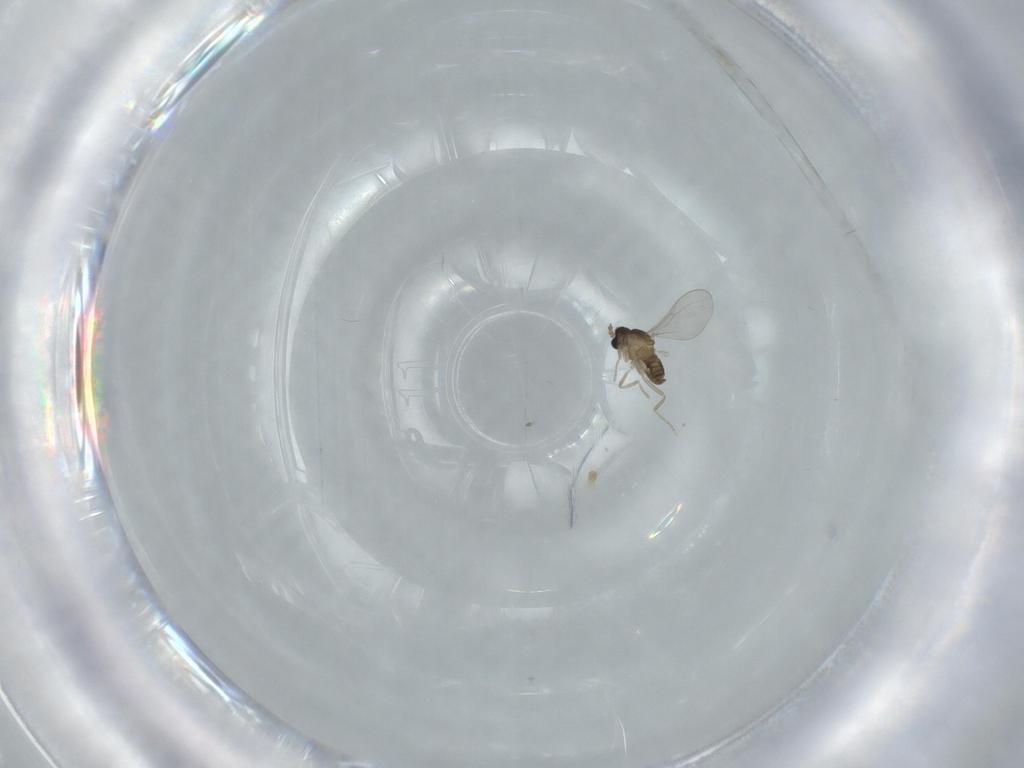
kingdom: Animalia
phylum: Arthropoda
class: Insecta
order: Diptera
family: Cecidomyiidae
